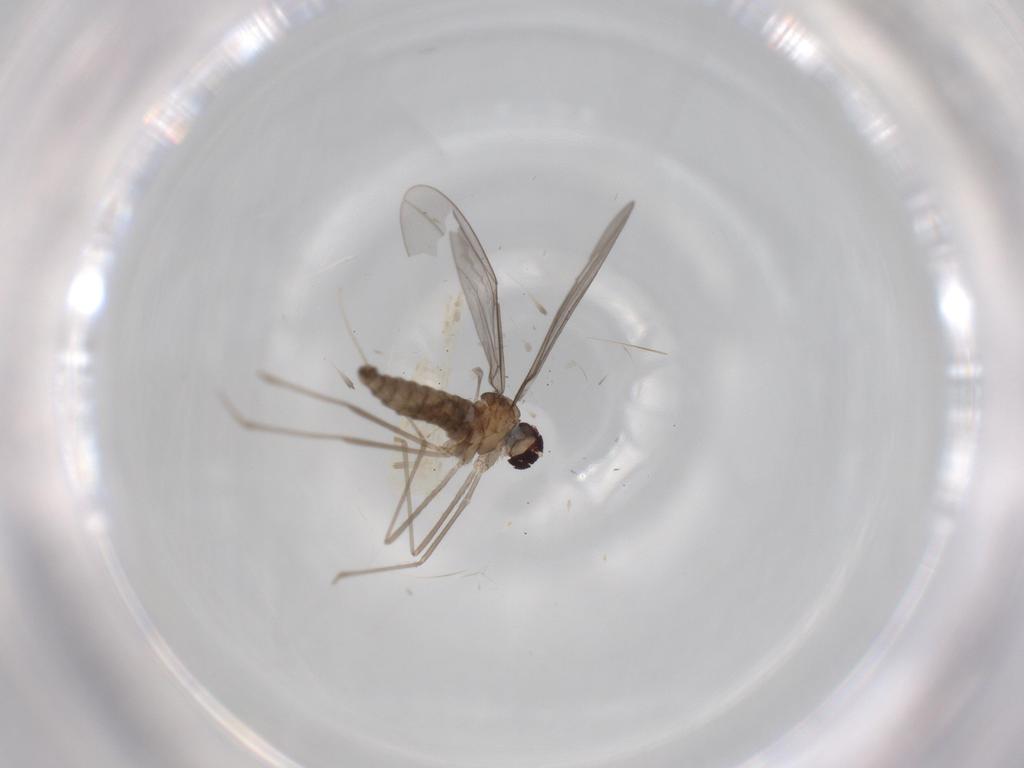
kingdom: Animalia
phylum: Arthropoda
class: Insecta
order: Diptera
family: Cecidomyiidae
